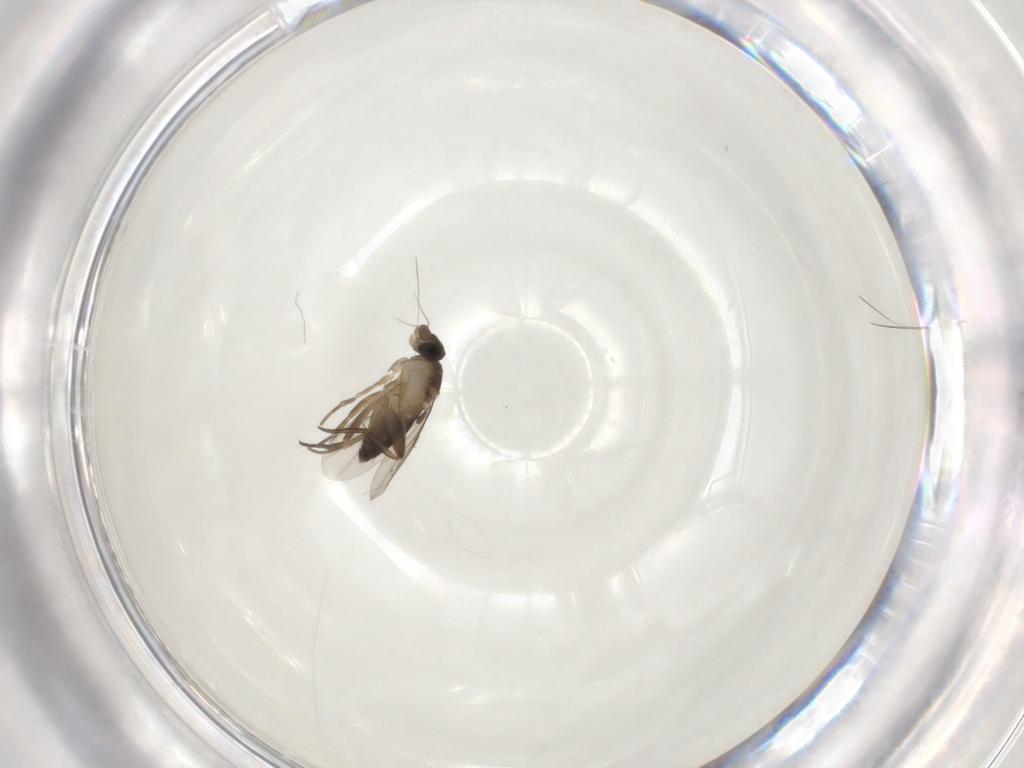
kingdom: Animalia
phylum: Arthropoda
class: Insecta
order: Diptera
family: Phoridae
